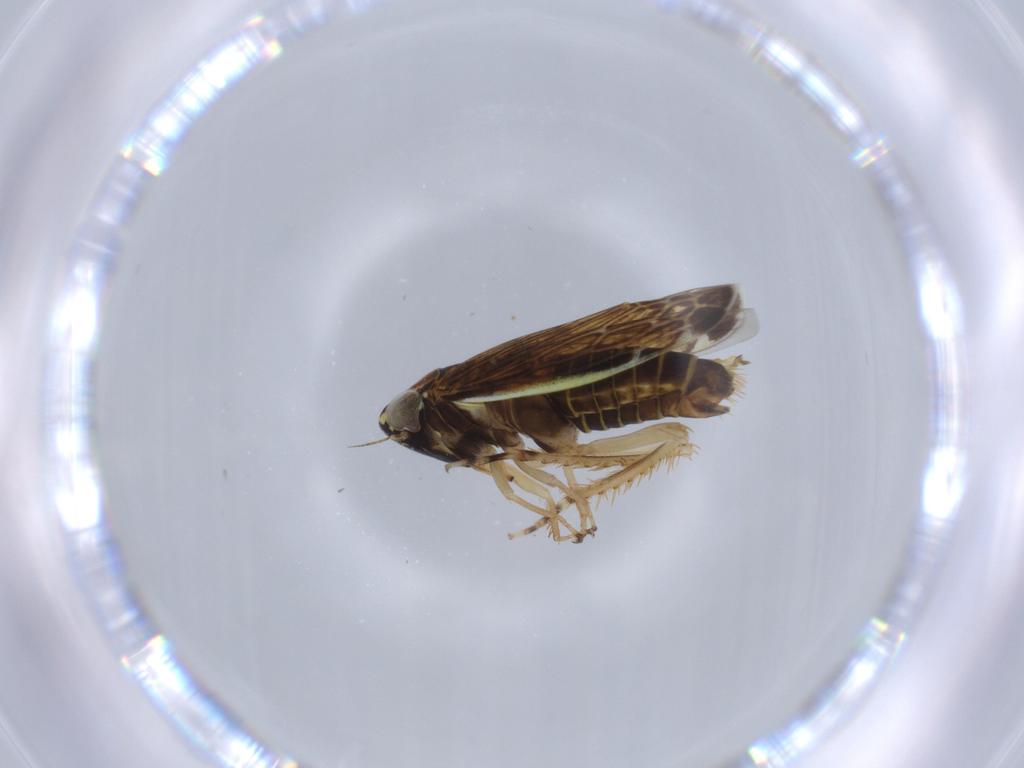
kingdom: Animalia
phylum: Arthropoda
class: Insecta
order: Hemiptera
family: Cicadellidae
